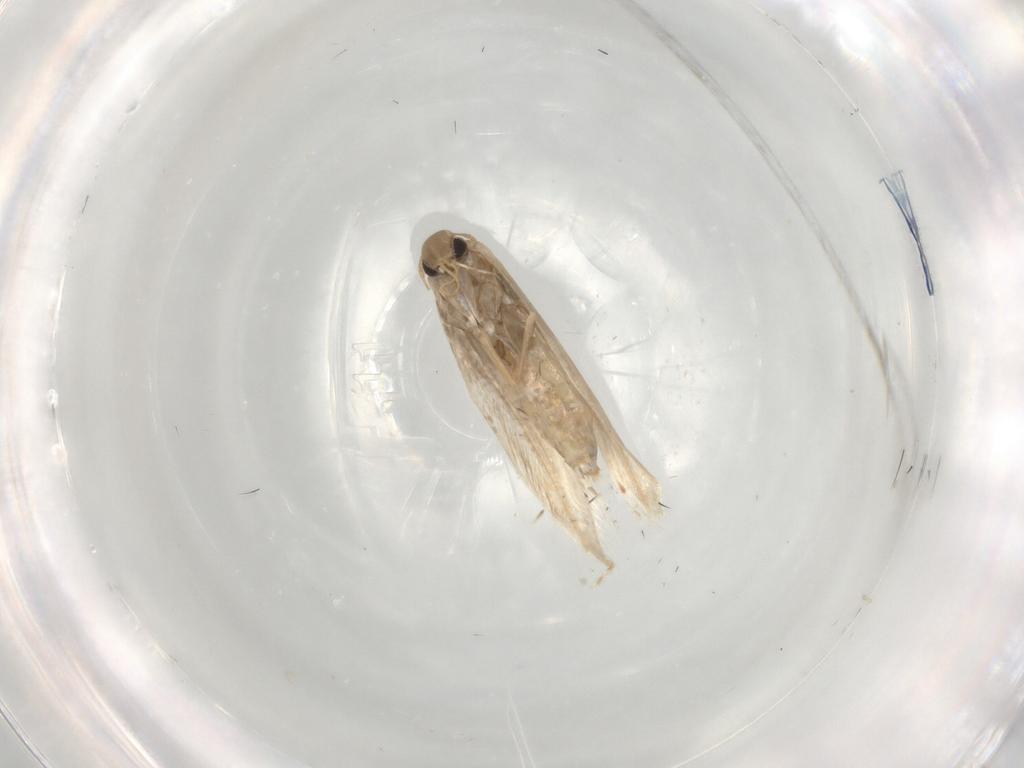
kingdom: Animalia
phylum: Arthropoda
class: Insecta
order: Lepidoptera
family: Gracillariidae
